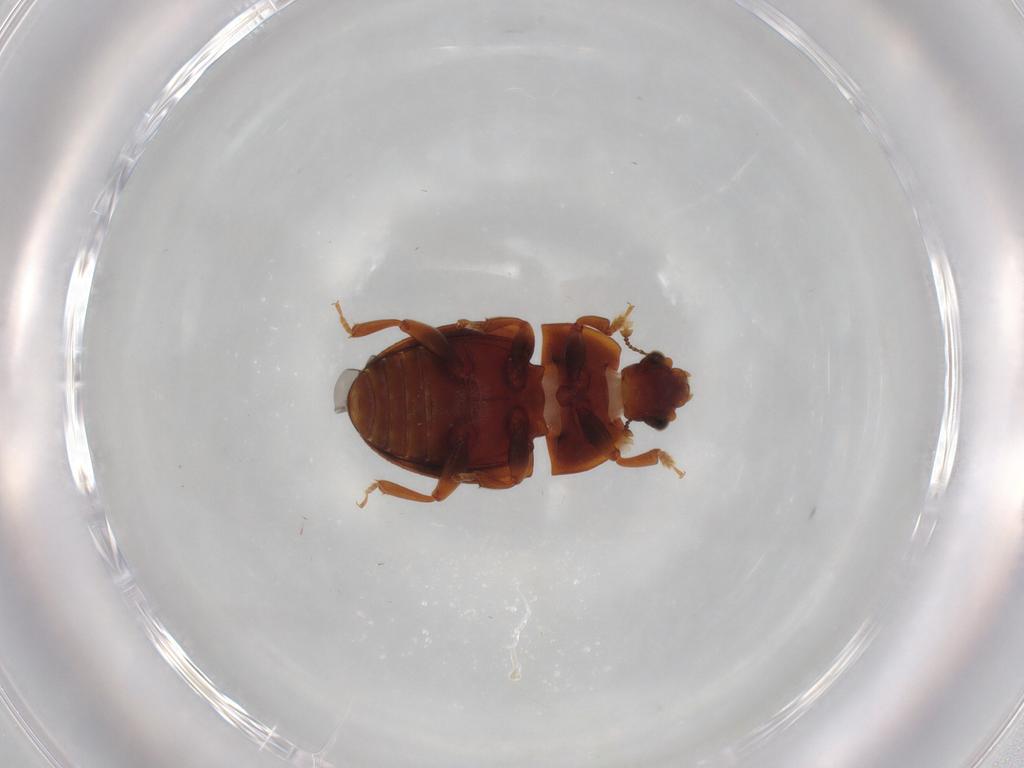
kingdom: Animalia
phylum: Arthropoda
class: Insecta
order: Coleoptera
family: Nitidulidae
